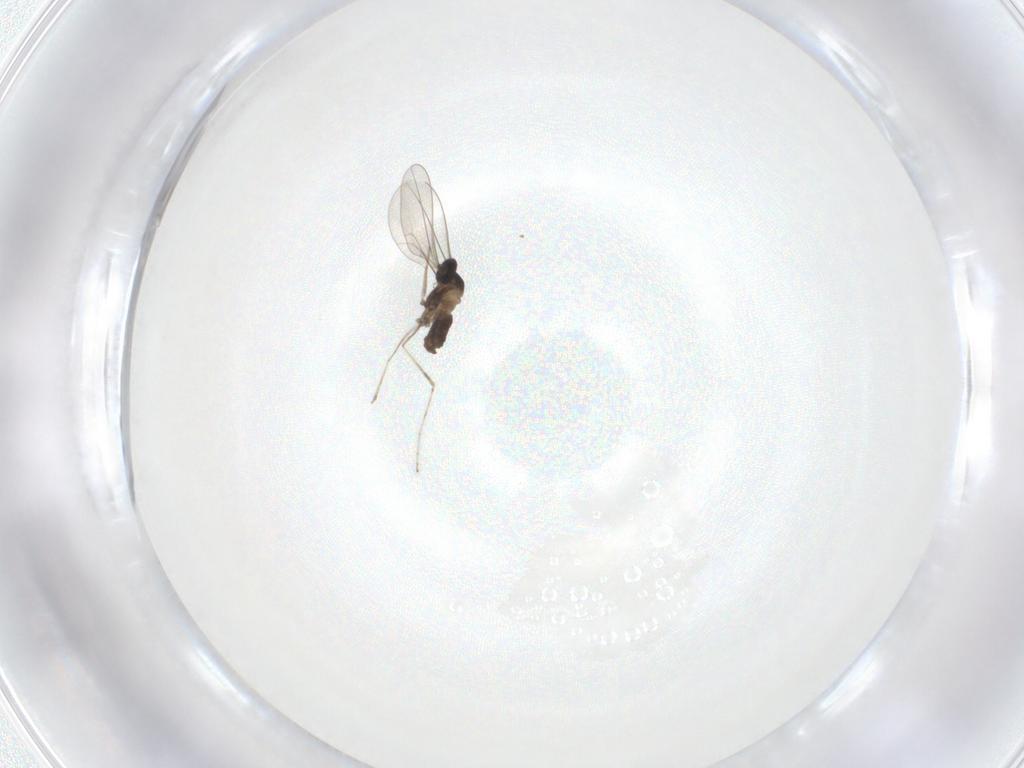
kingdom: Animalia
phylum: Arthropoda
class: Insecta
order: Diptera
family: Cecidomyiidae
